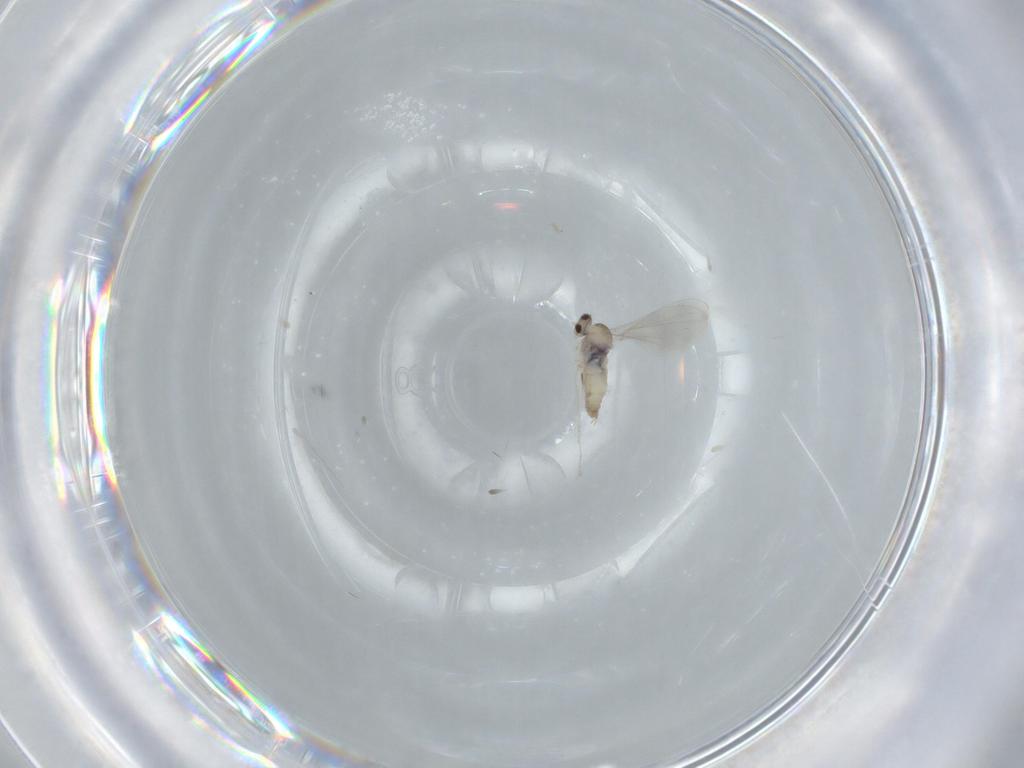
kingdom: Animalia
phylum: Arthropoda
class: Insecta
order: Diptera
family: Cecidomyiidae
